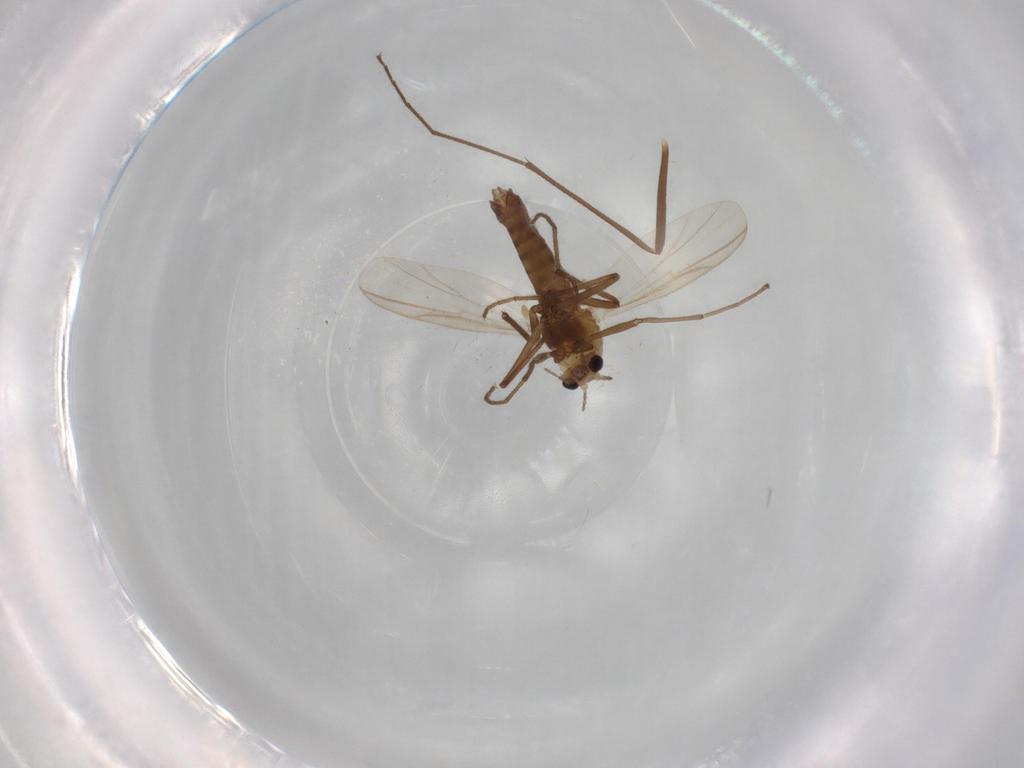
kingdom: Animalia
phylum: Arthropoda
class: Insecta
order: Diptera
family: Chironomidae
